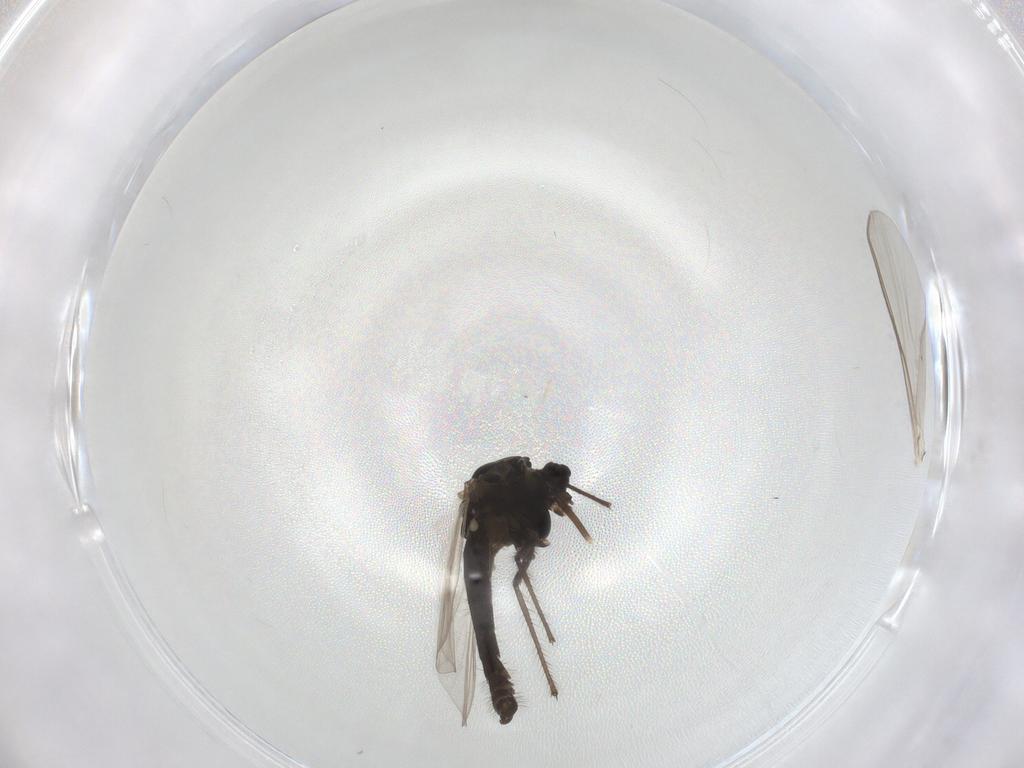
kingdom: Animalia
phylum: Arthropoda
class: Insecta
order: Diptera
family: Chironomidae
